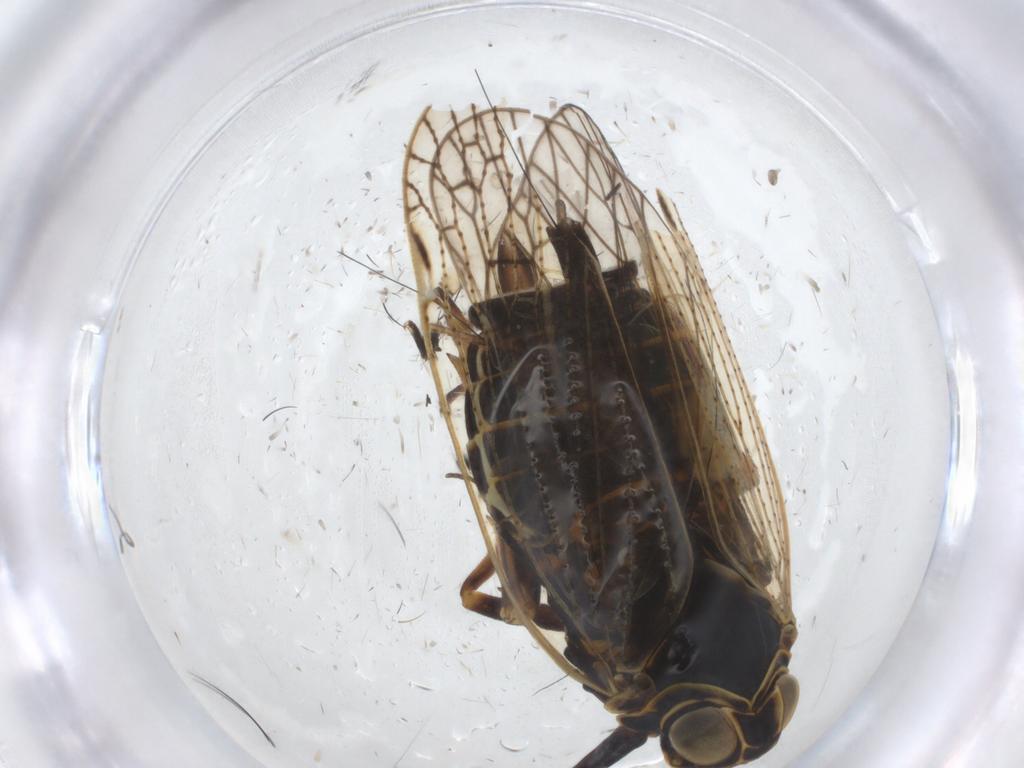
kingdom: Animalia
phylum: Arthropoda
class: Insecta
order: Hemiptera
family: Cixiidae
